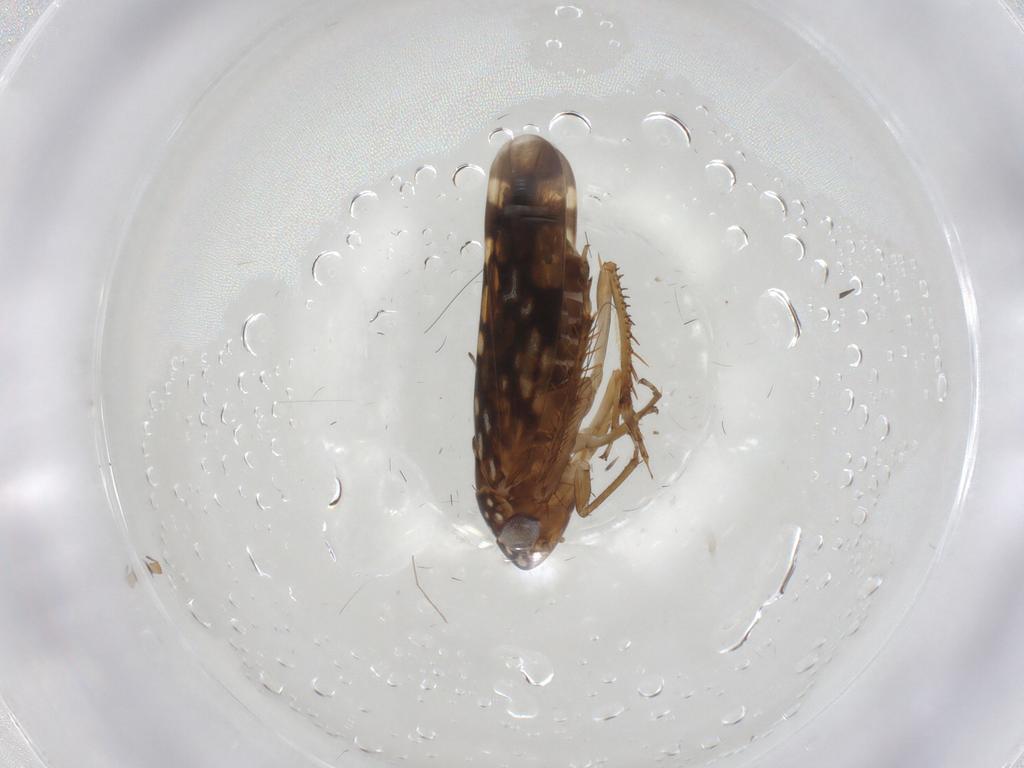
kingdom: Animalia
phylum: Arthropoda
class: Insecta
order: Hemiptera
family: Cicadellidae
